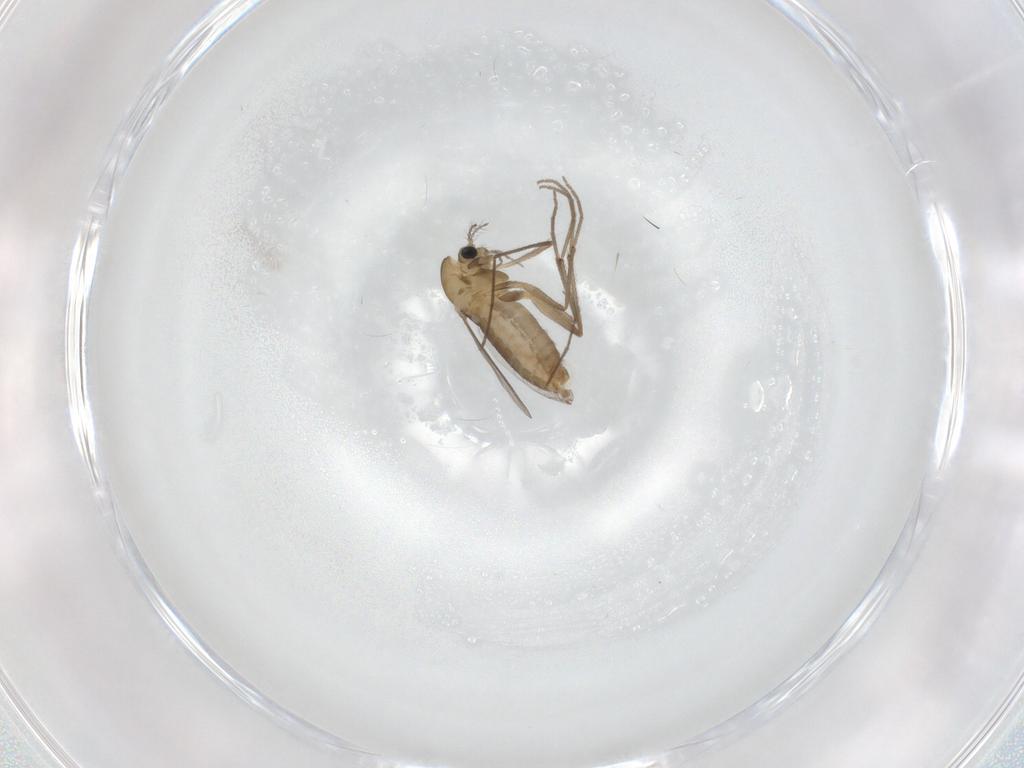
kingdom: Animalia
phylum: Arthropoda
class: Insecta
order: Diptera
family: Chironomidae
